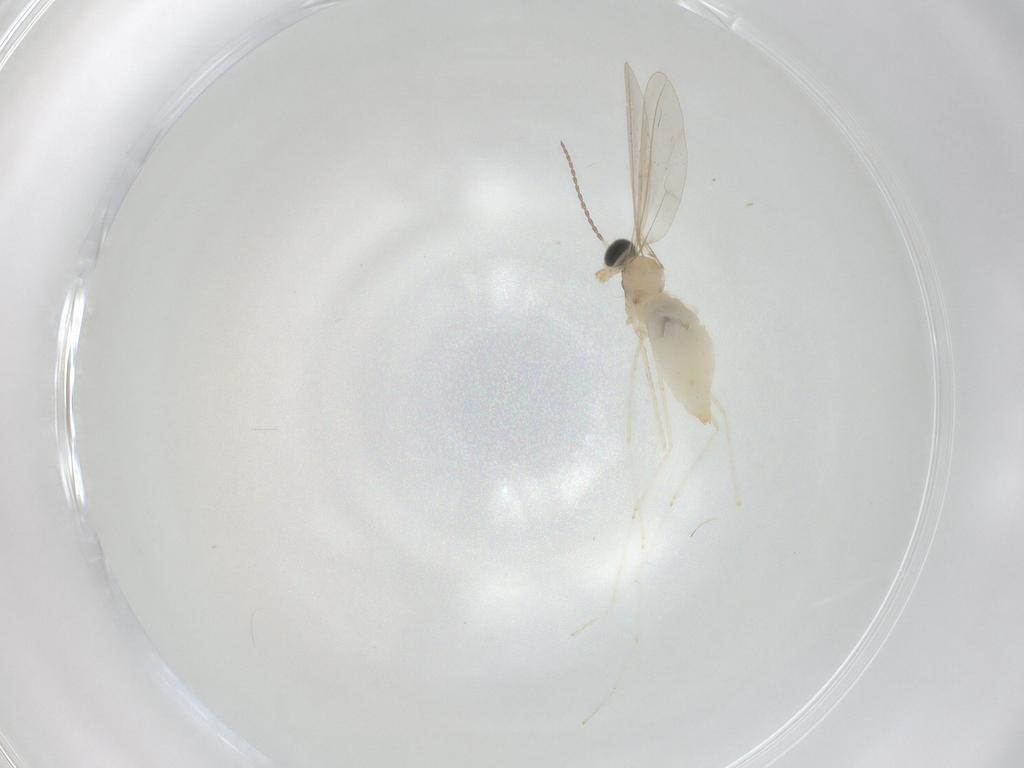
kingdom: Animalia
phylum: Arthropoda
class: Insecta
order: Diptera
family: Cecidomyiidae
